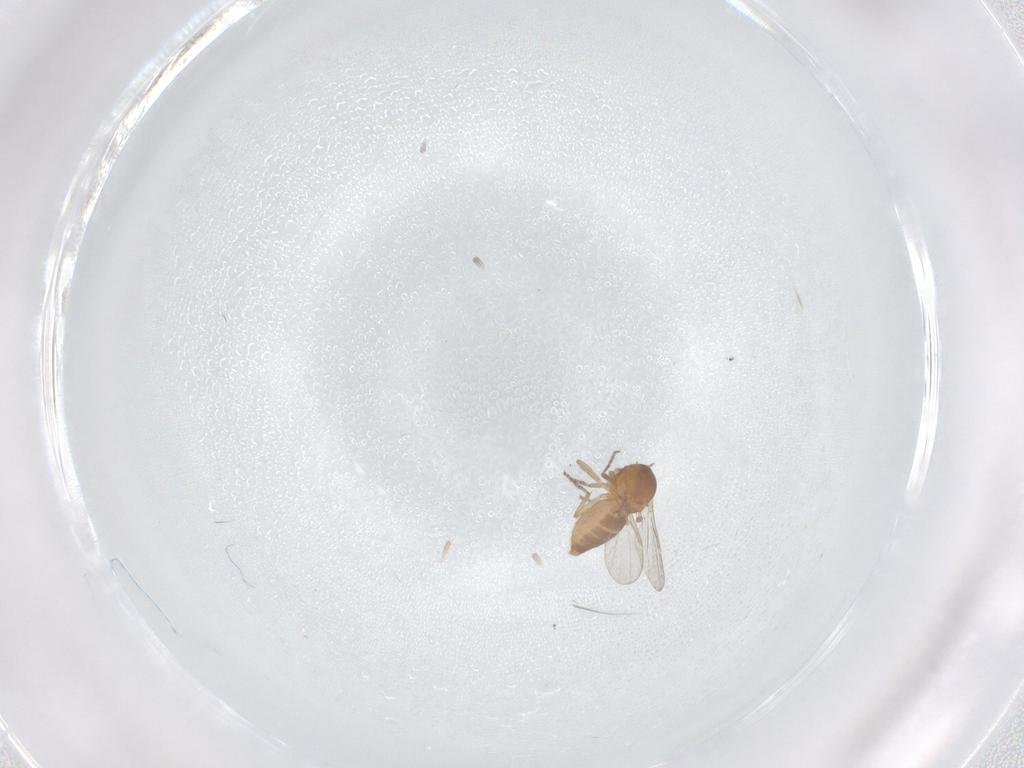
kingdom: Animalia
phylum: Arthropoda
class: Insecta
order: Diptera
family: Ceratopogonidae
